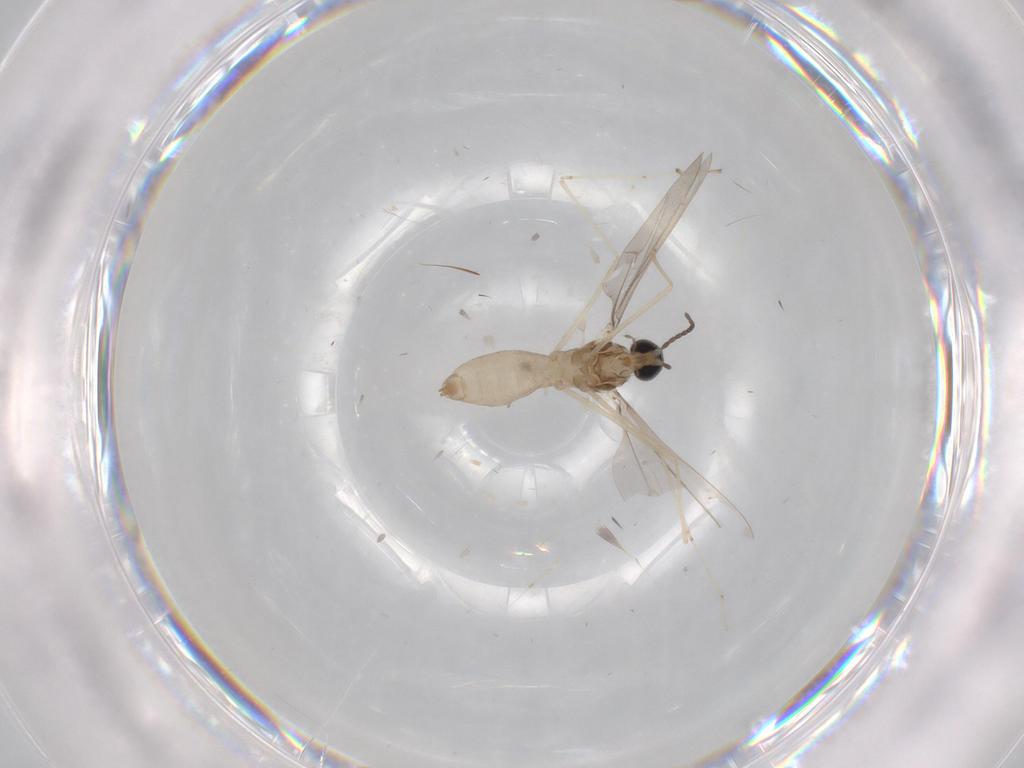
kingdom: Animalia
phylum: Arthropoda
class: Insecta
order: Diptera
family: Cecidomyiidae
